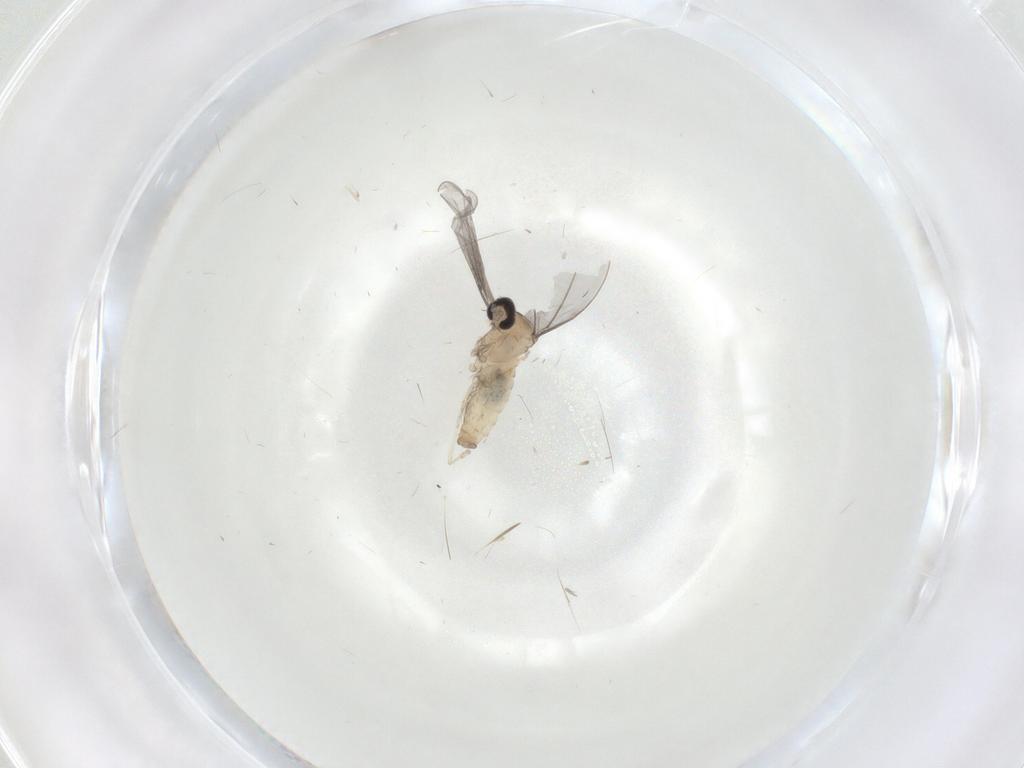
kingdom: Animalia
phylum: Arthropoda
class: Insecta
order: Diptera
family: Cecidomyiidae
